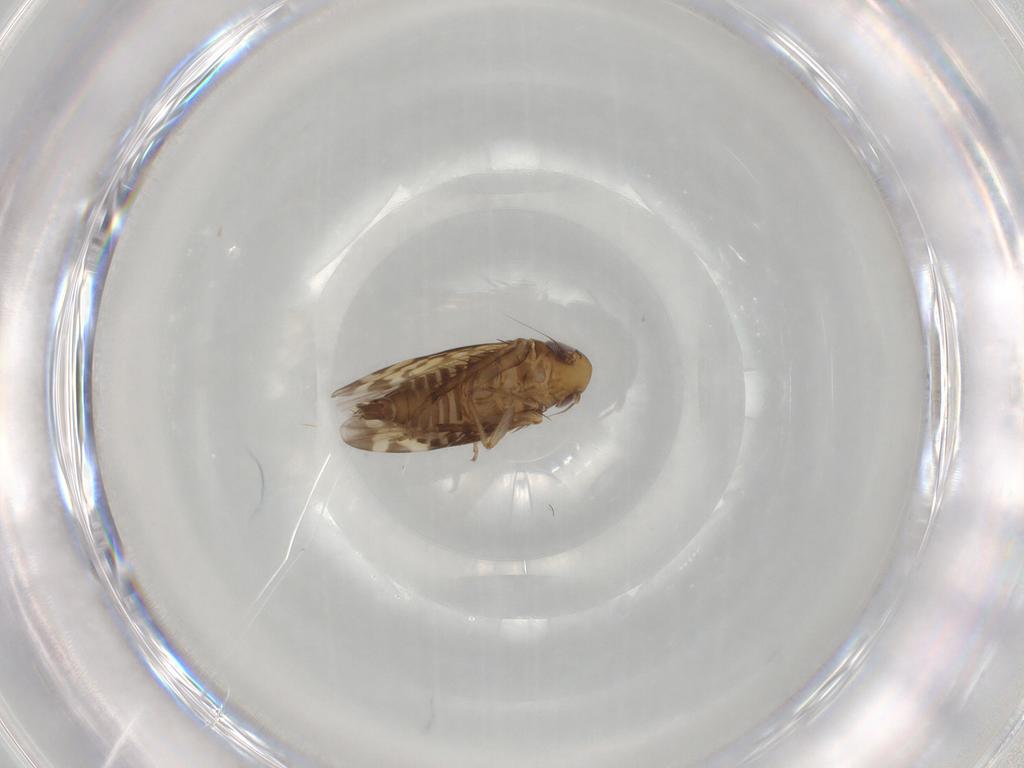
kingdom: Animalia
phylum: Arthropoda
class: Insecta
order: Hemiptera
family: Cicadellidae
